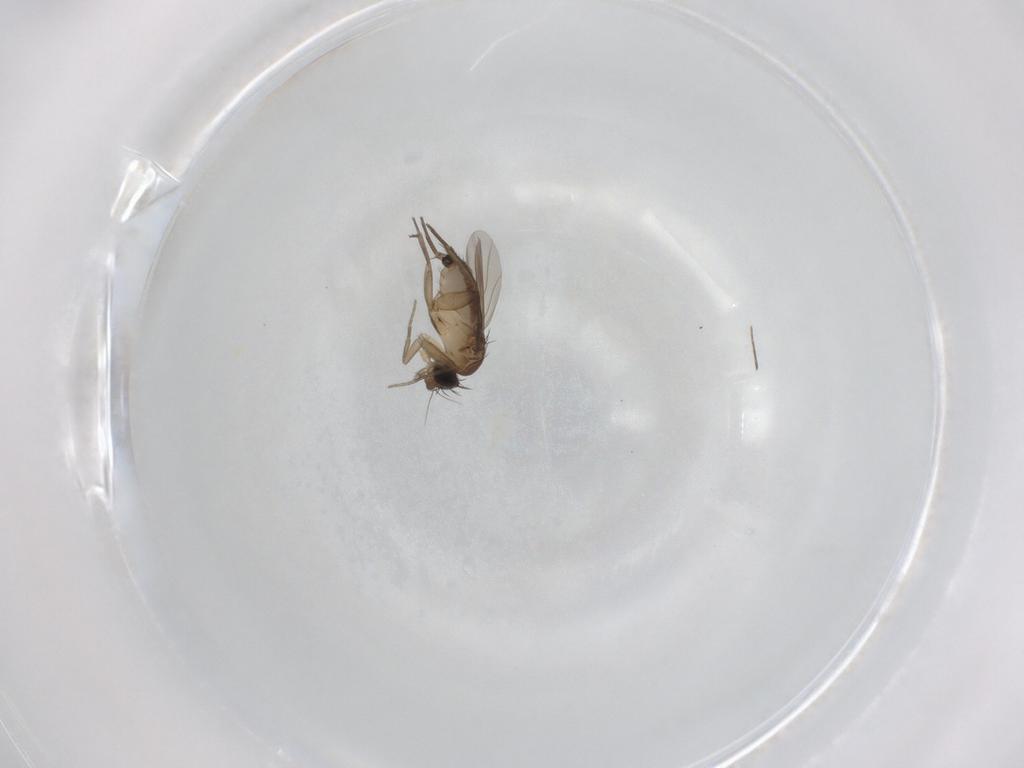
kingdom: Animalia
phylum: Arthropoda
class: Insecta
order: Diptera
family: Phoridae
